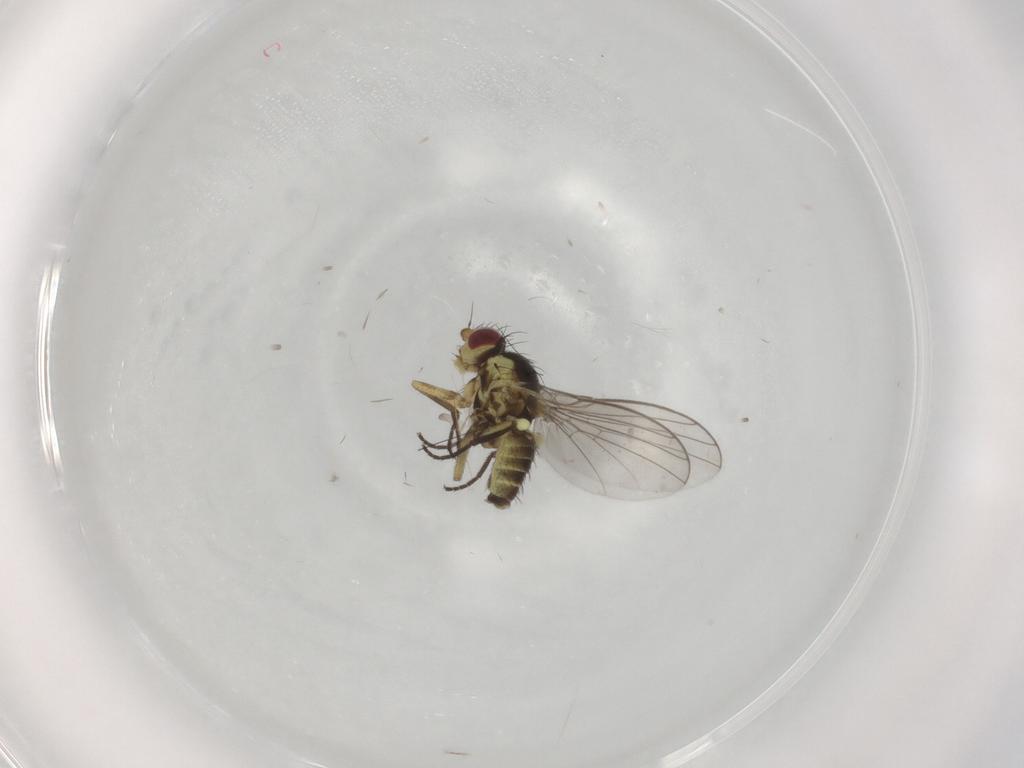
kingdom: Animalia
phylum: Arthropoda
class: Insecta
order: Diptera
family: Agromyzidae
